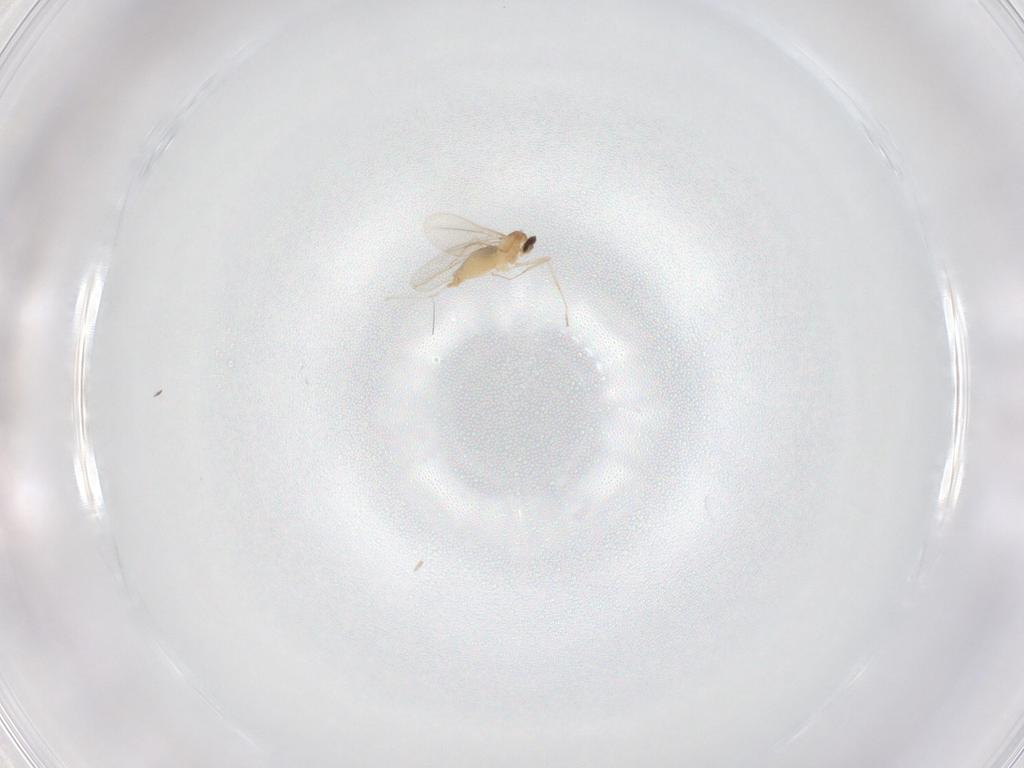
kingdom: Animalia
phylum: Arthropoda
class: Insecta
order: Diptera
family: Cecidomyiidae
